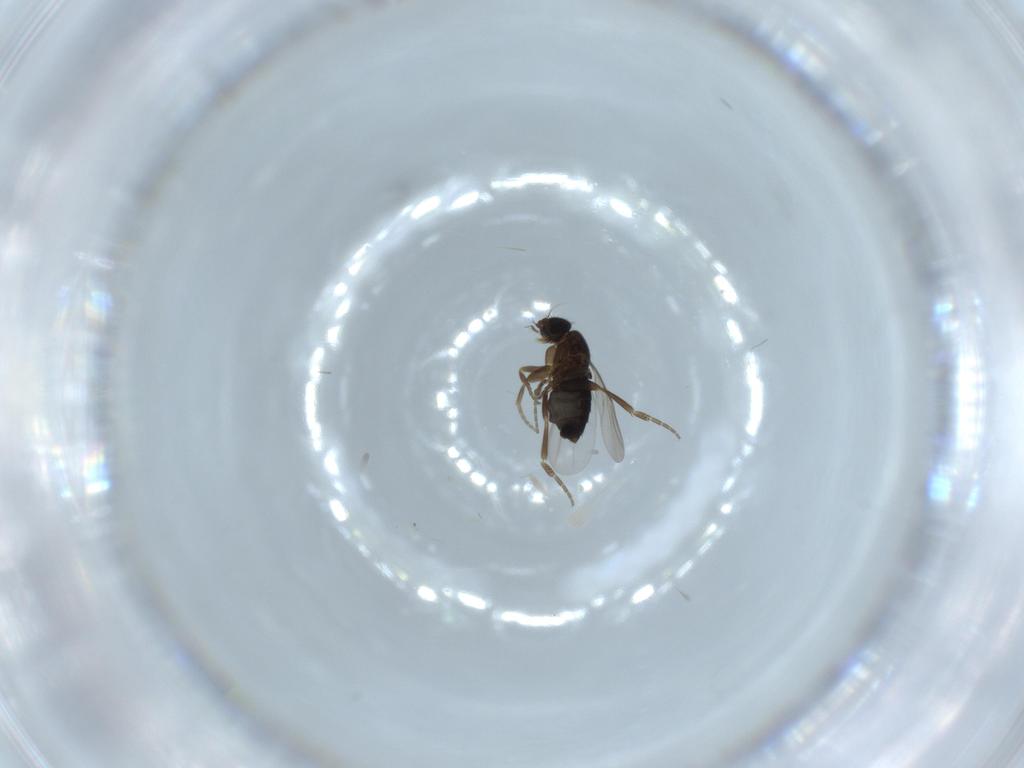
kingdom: Animalia
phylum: Arthropoda
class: Insecta
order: Diptera
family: Phoridae
